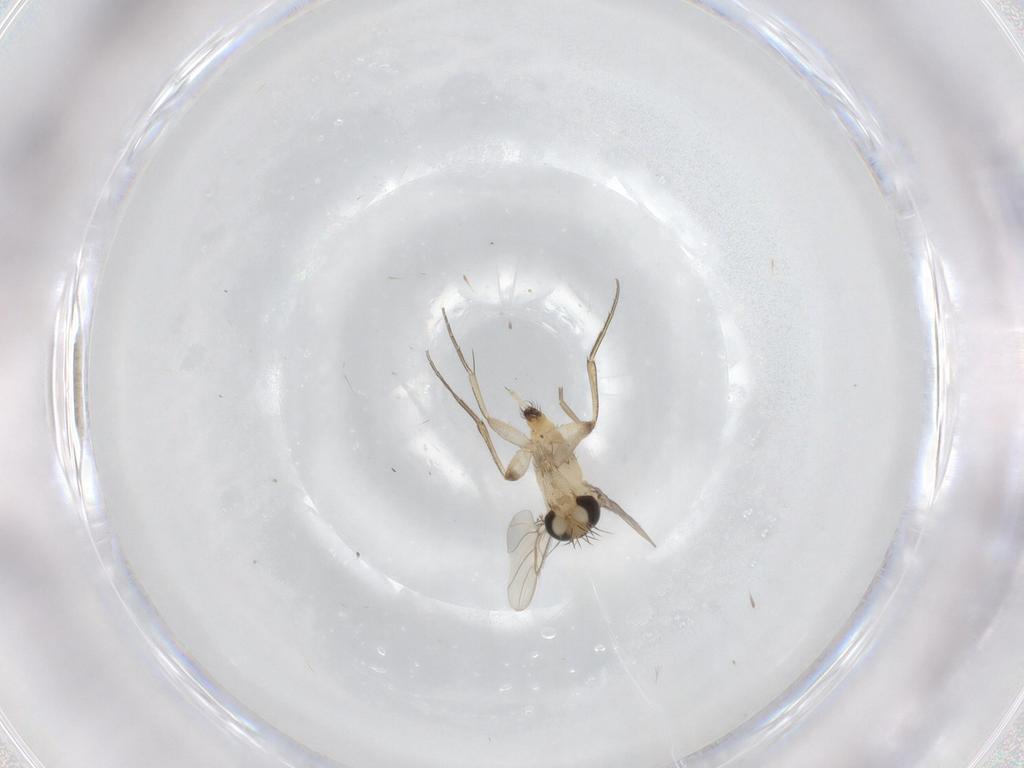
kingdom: Animalia
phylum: Arthropoda
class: Insecta
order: Diptera
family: Phoridae
